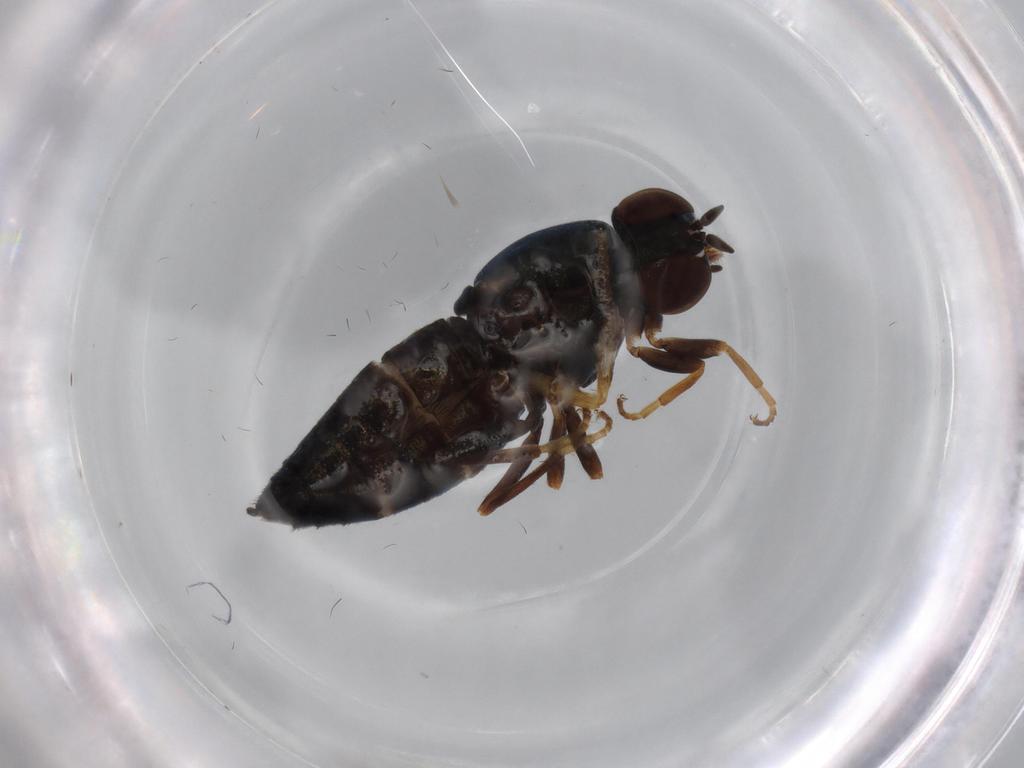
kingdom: Animalia
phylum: Arthropoda
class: Insecta
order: Diptera
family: Scenopinidae
